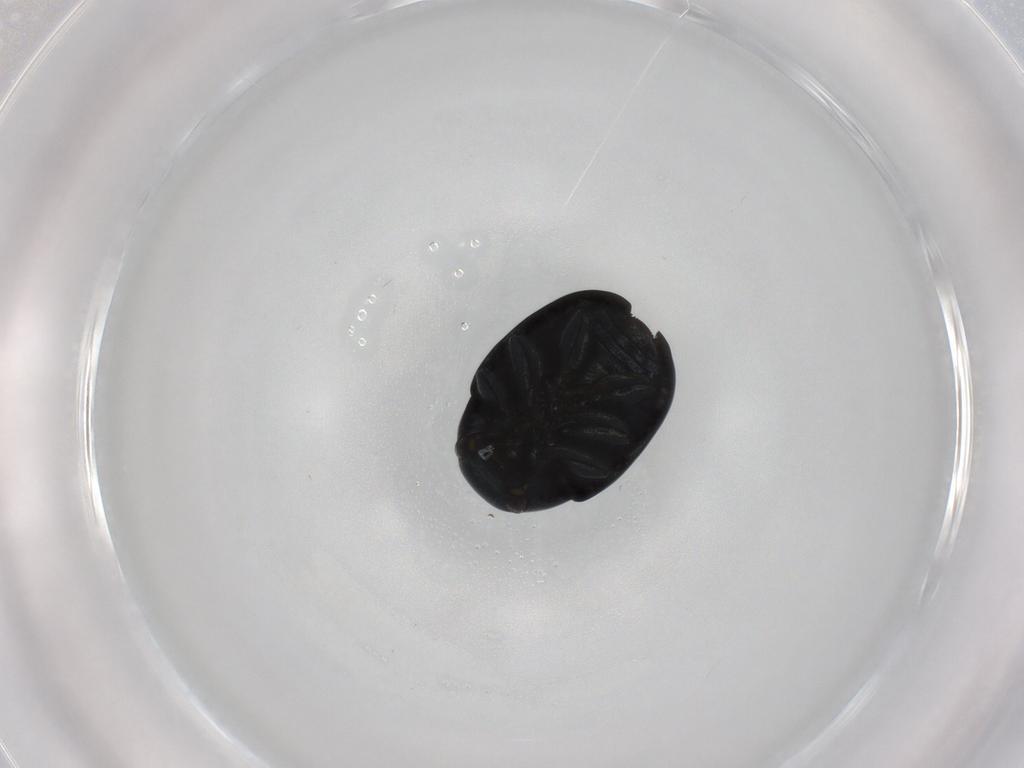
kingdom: Animalia
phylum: Arthropoda
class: Insecta
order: Coleoptera
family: Chrysomelidae
